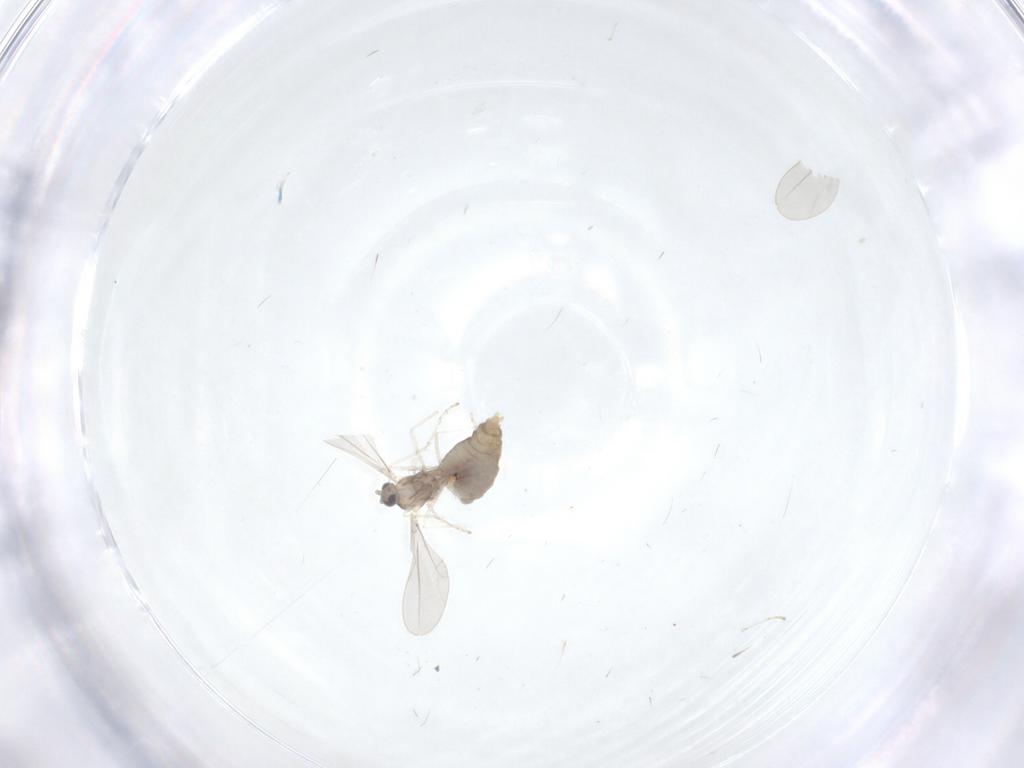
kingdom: Animalia
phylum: Arthropoda
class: Insecta
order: Diptera
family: Cecidomyiidae
